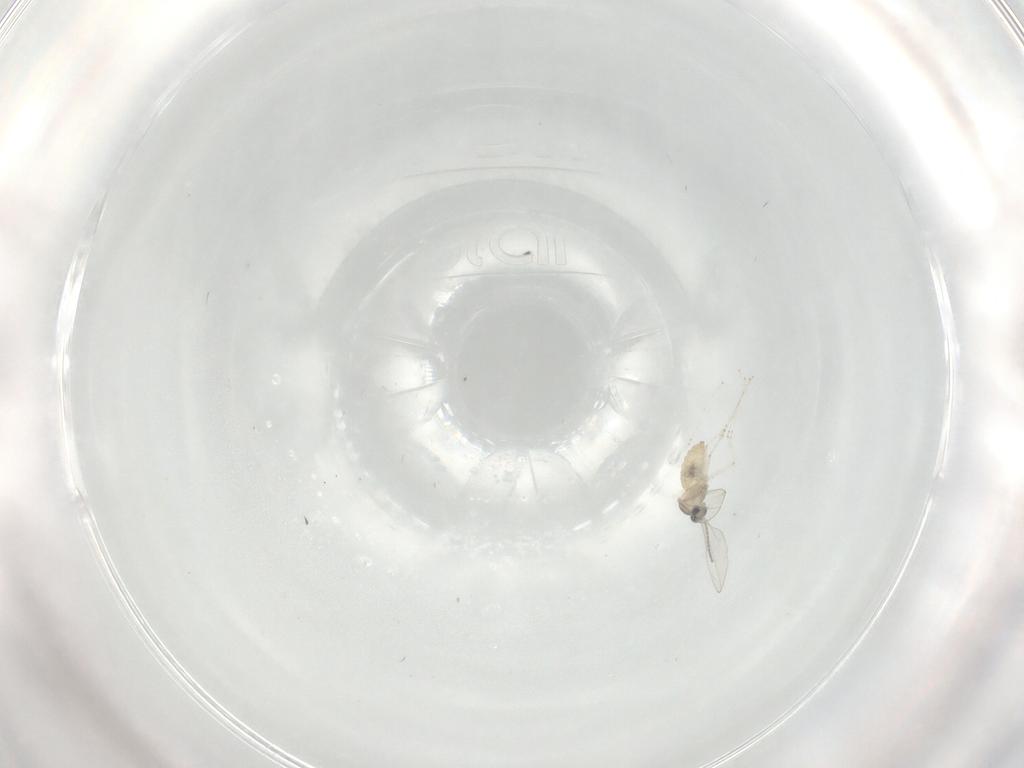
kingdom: Animalia
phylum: Arthropoda
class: Insecta
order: Diptera
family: Cecidomyiidae
